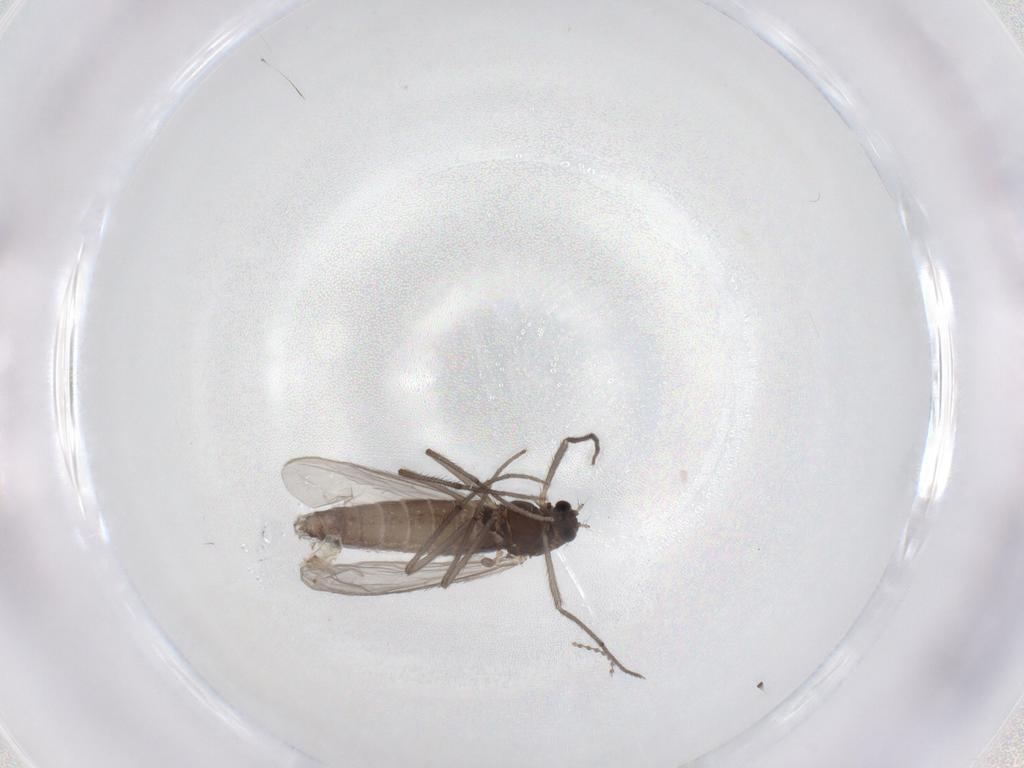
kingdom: Animalia
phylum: Arthropoda
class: Insecta
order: Diptera
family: Chironomidae
